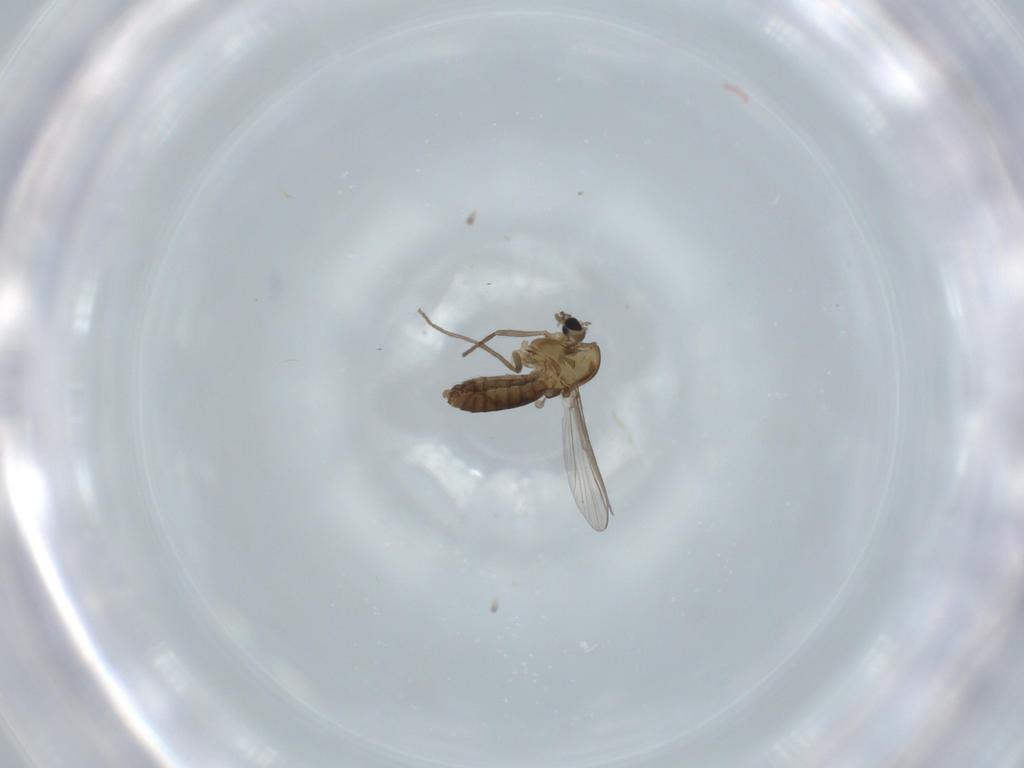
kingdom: Animalia
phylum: Arthropoda
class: Insecta
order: Diptera
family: Chironomidae
